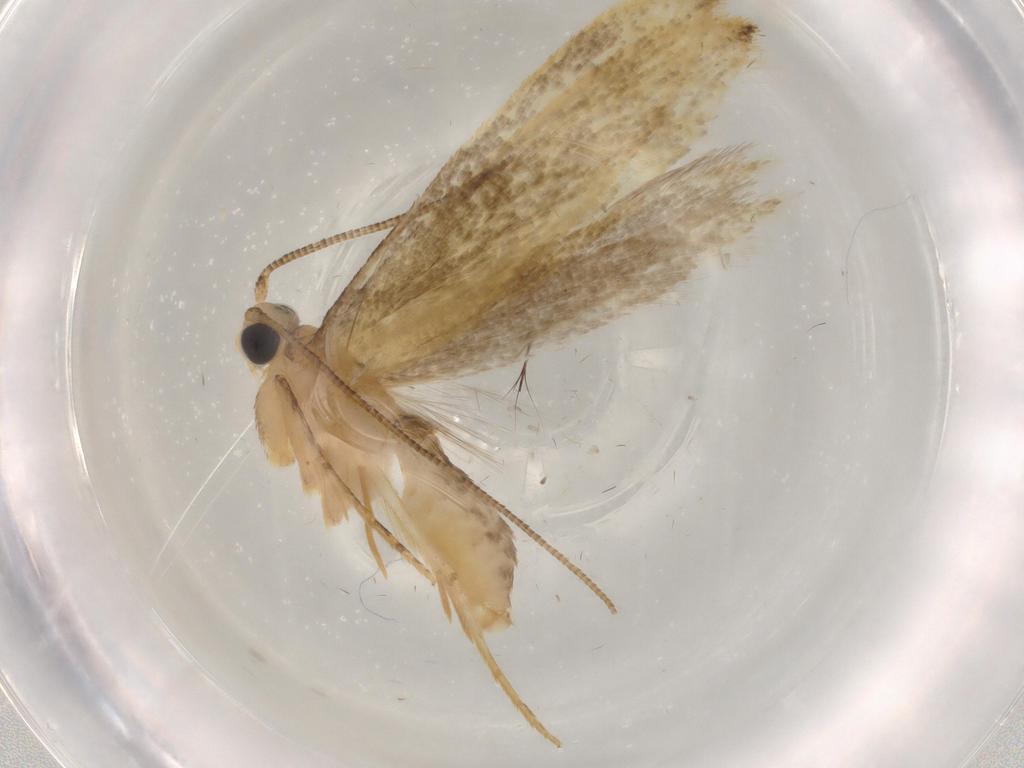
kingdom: Animalia
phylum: Arthropoda
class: Insecta
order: Lepidoptera
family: Tineidae
